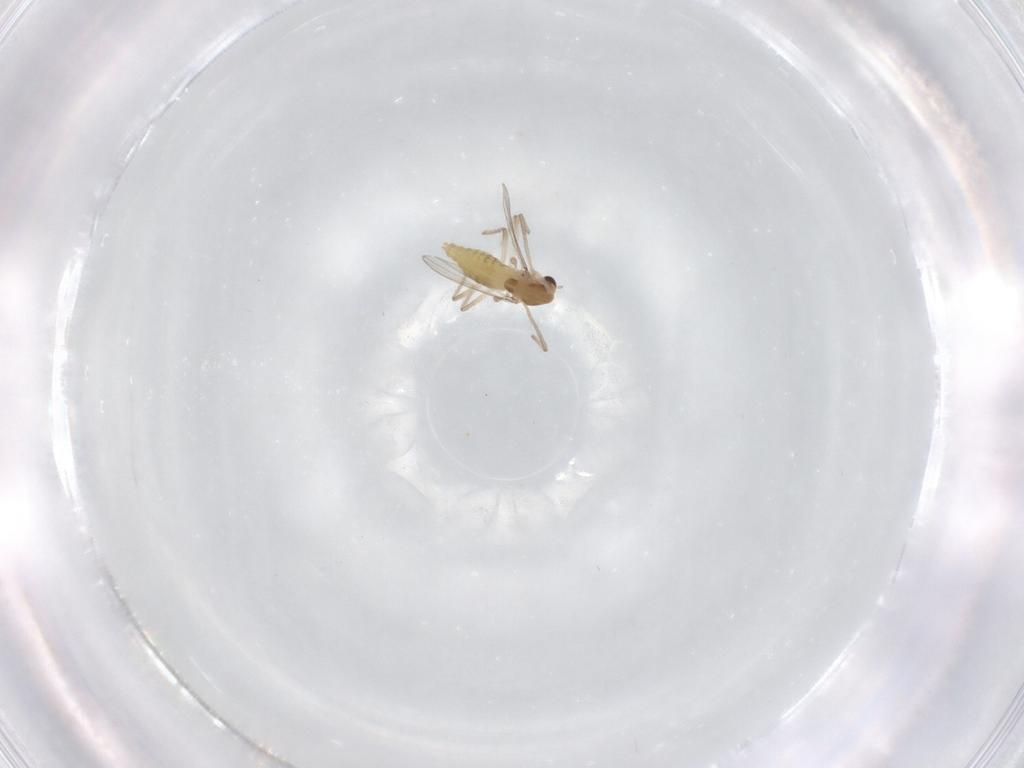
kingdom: Animalia
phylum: Arthropoda
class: Insecta
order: Diptera
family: Chironomidae
